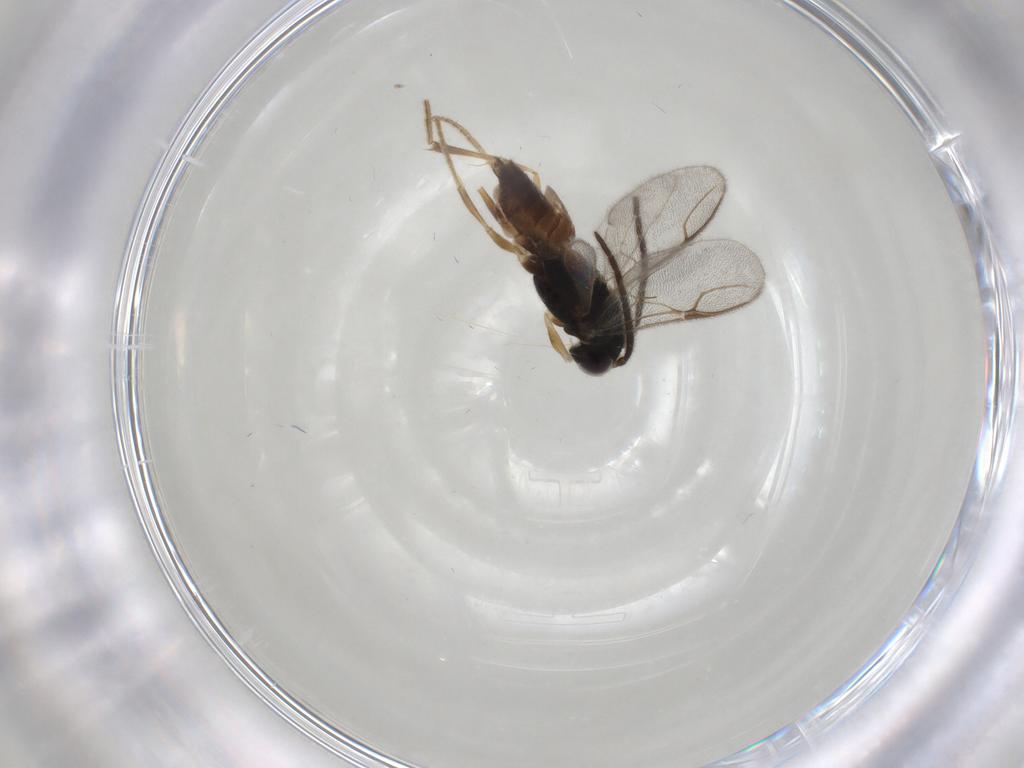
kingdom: Animalia
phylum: Arthropoda
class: Insecta
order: Hymenoptera
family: Dryinidae
